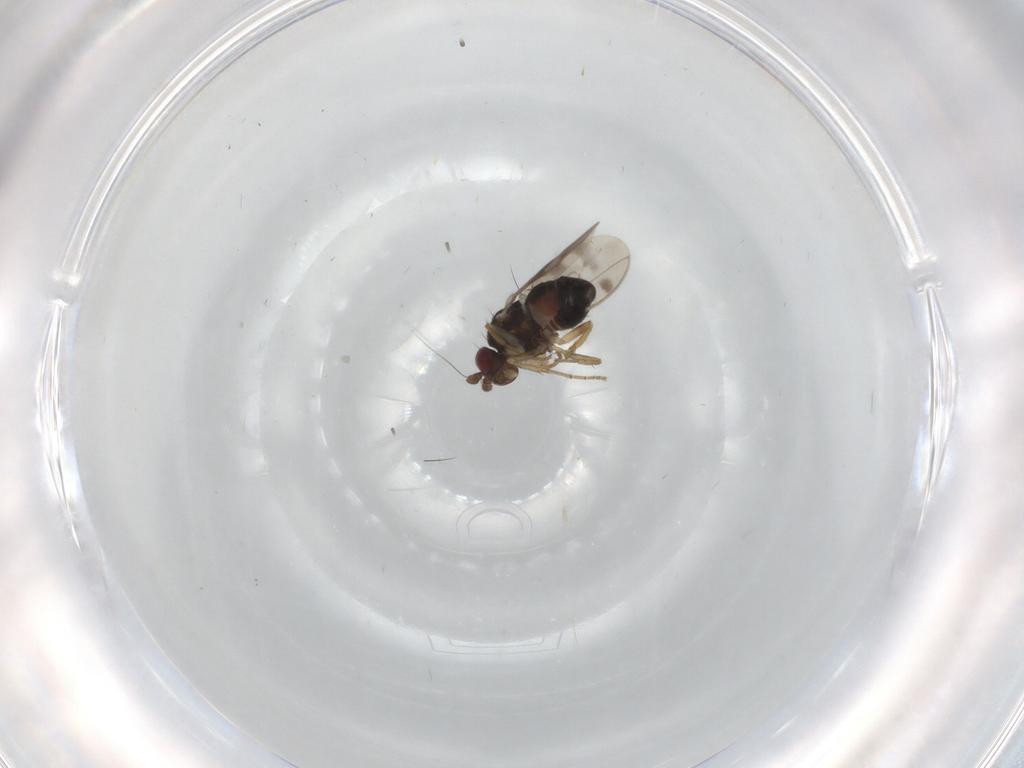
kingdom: Animalia
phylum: Arthropoda
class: Insecta
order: Diptera
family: Sphaeroceridae
